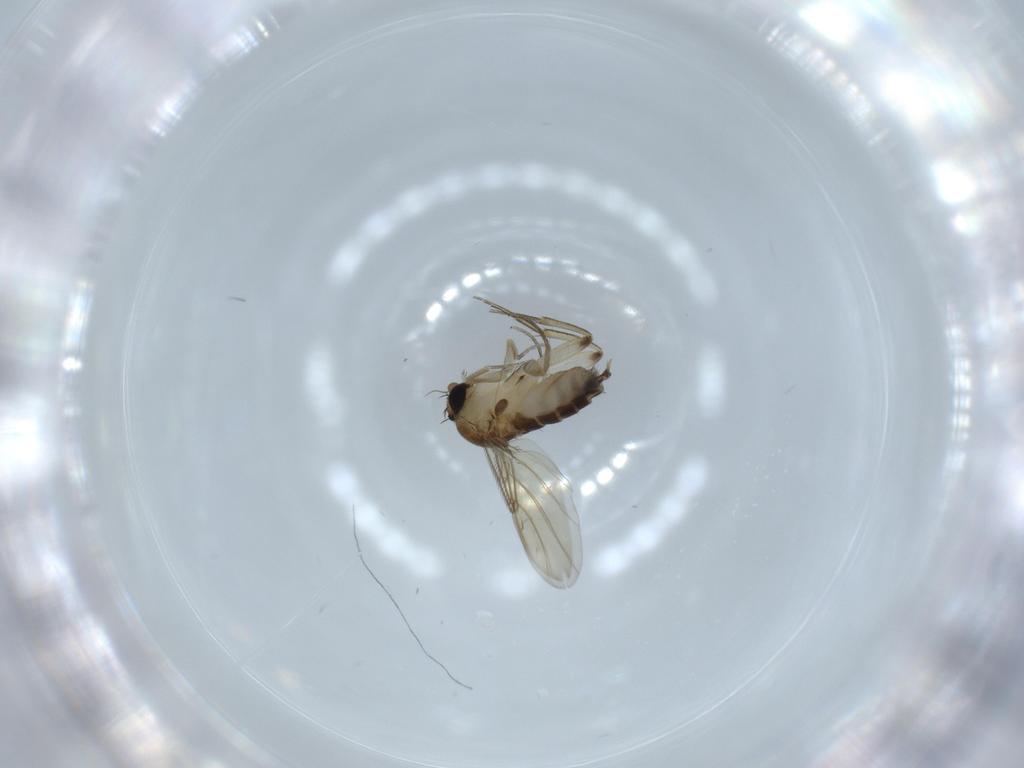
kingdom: Animalia
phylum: Arthropoda
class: Insecta
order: Diptera
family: Phoridae
